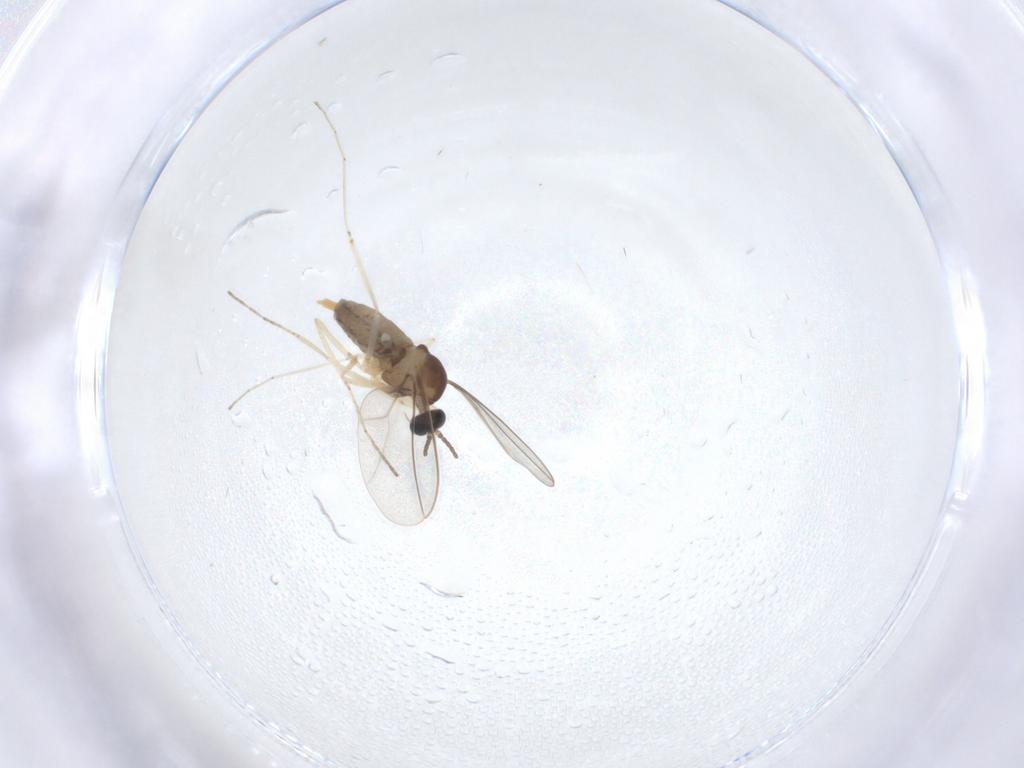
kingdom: Animalia
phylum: Arthropoda
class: Insecta
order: Diptera
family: Cecidomyiidae
